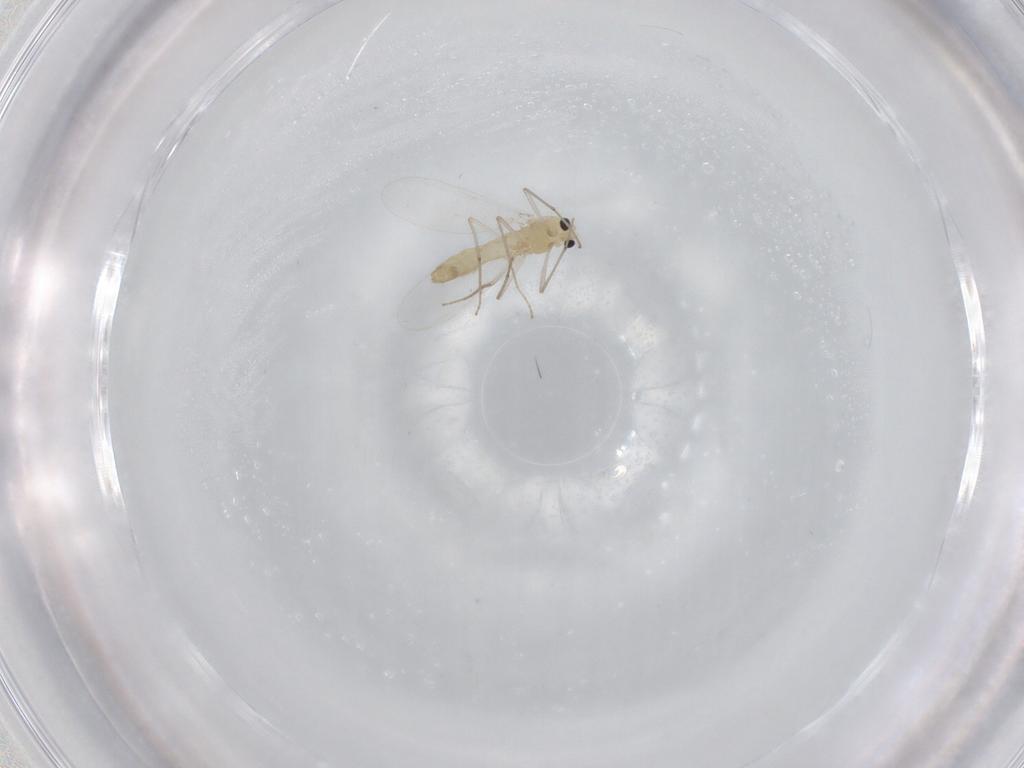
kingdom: Animalia
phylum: Arthropoda
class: Insecta
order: Diptera
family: Chironomidae
